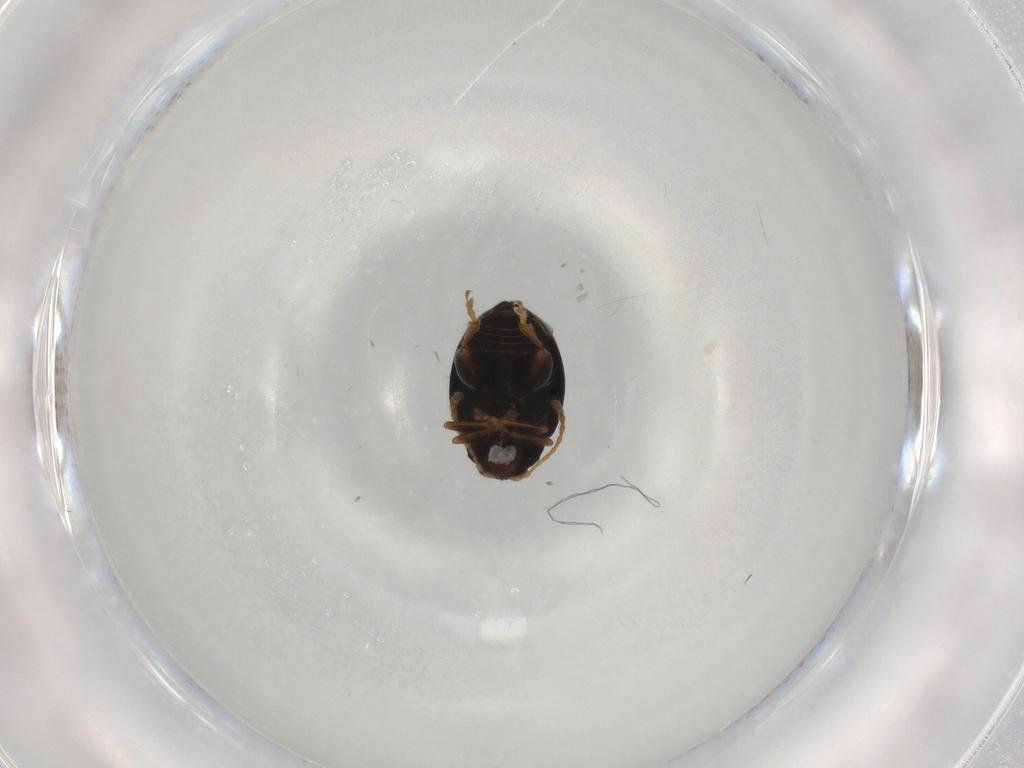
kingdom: Animalia
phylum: Arthropoda
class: Insecta
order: Coleoptera
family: Chrysomelidae
